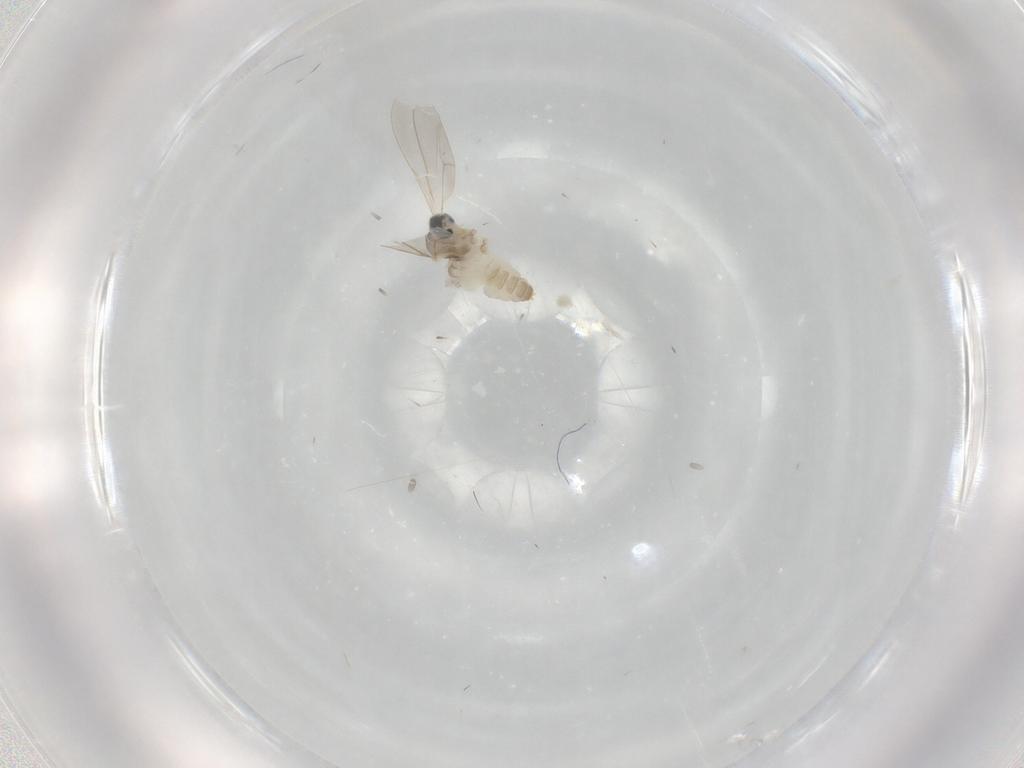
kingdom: Animalia
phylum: Arthropoda
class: Insecta
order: Diptera
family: Cecidomyiidae
